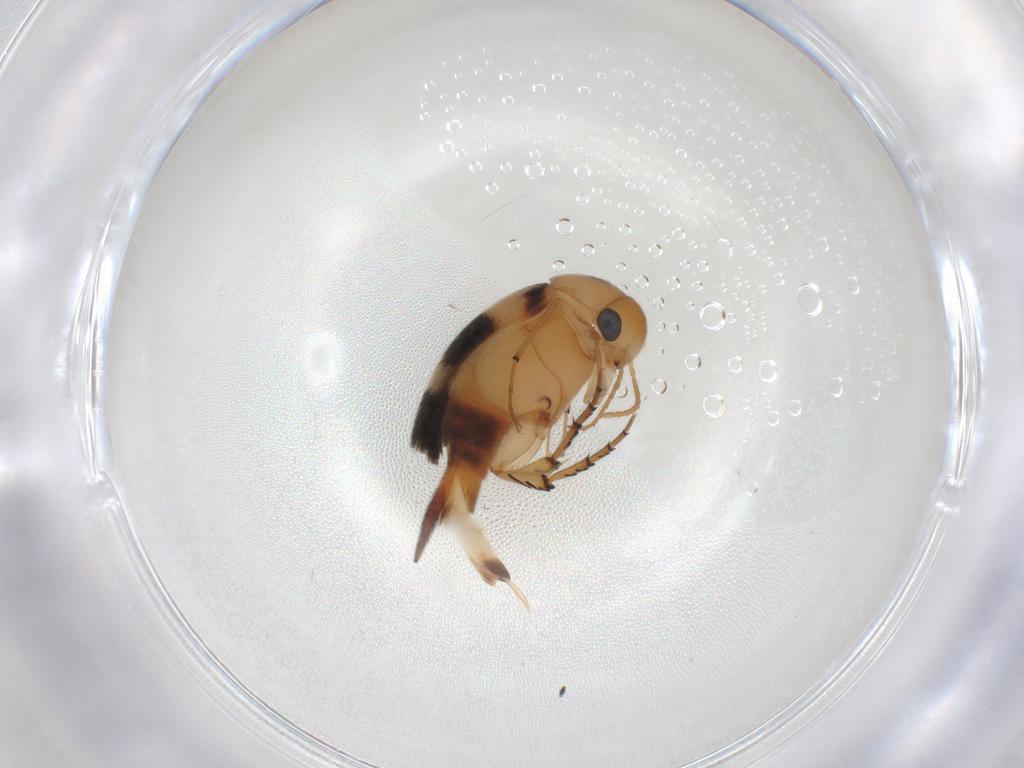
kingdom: Animalia
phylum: Arthropoda
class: Insecta
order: Coleoptera
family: Mordellidae
